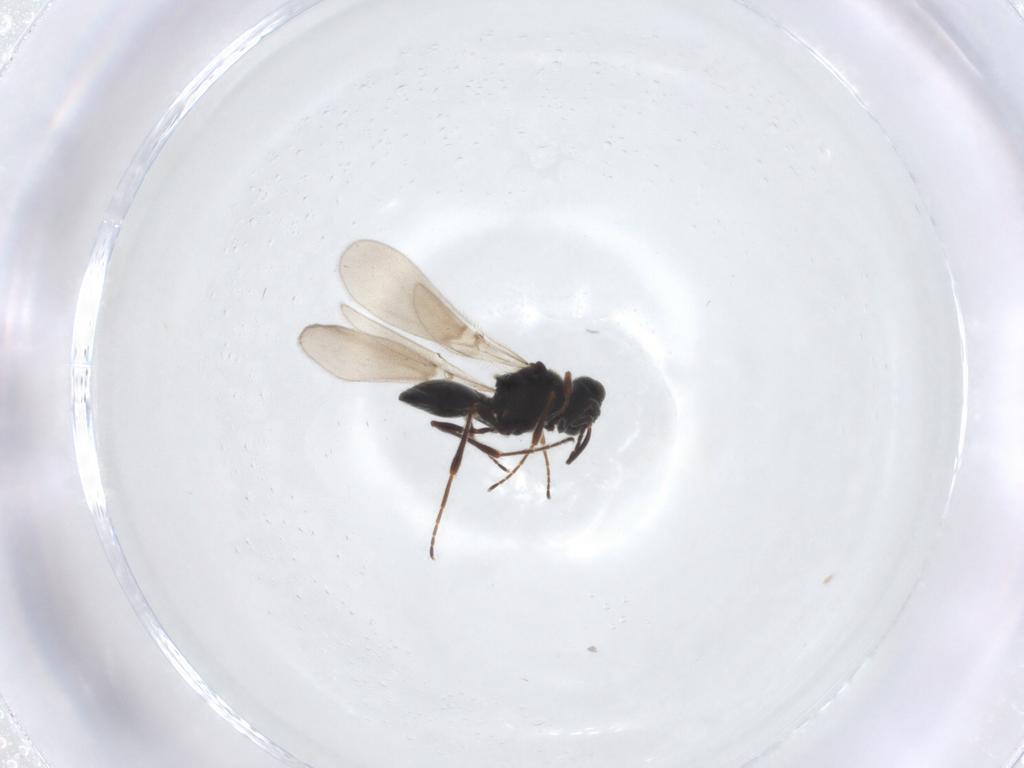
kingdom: Animalia
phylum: Arthropoda
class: Insecta
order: Hymenoptera
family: Platygastridae
